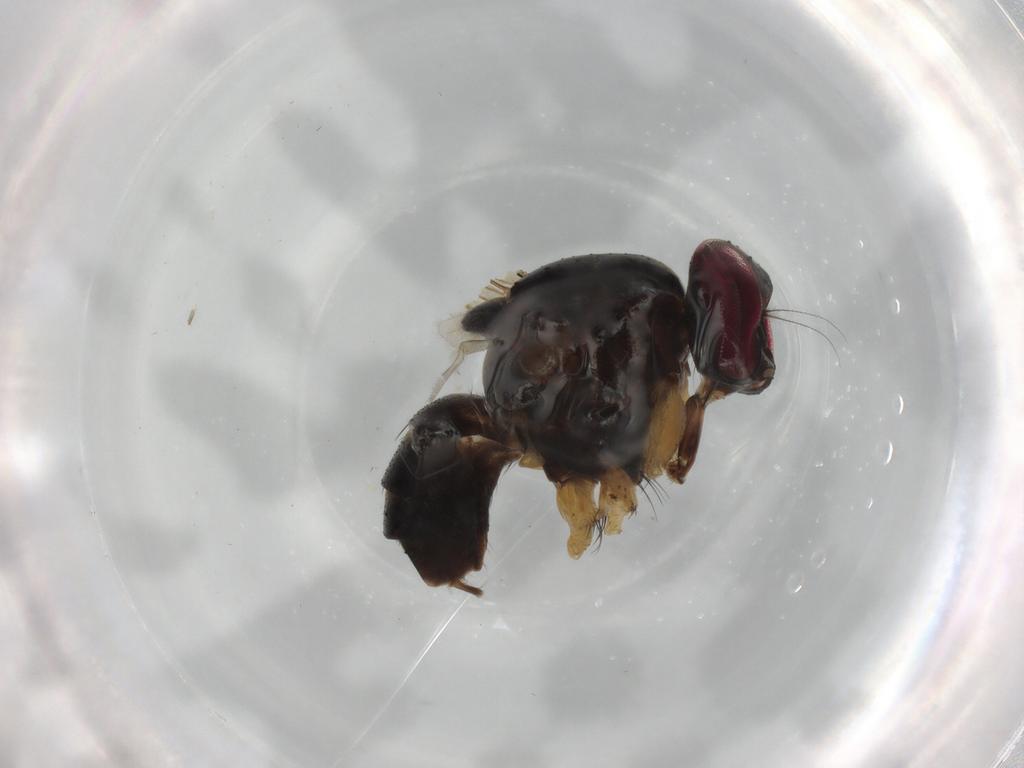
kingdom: Animalia
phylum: Arthropoda
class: Insecta
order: Diptera
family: Muscidae
